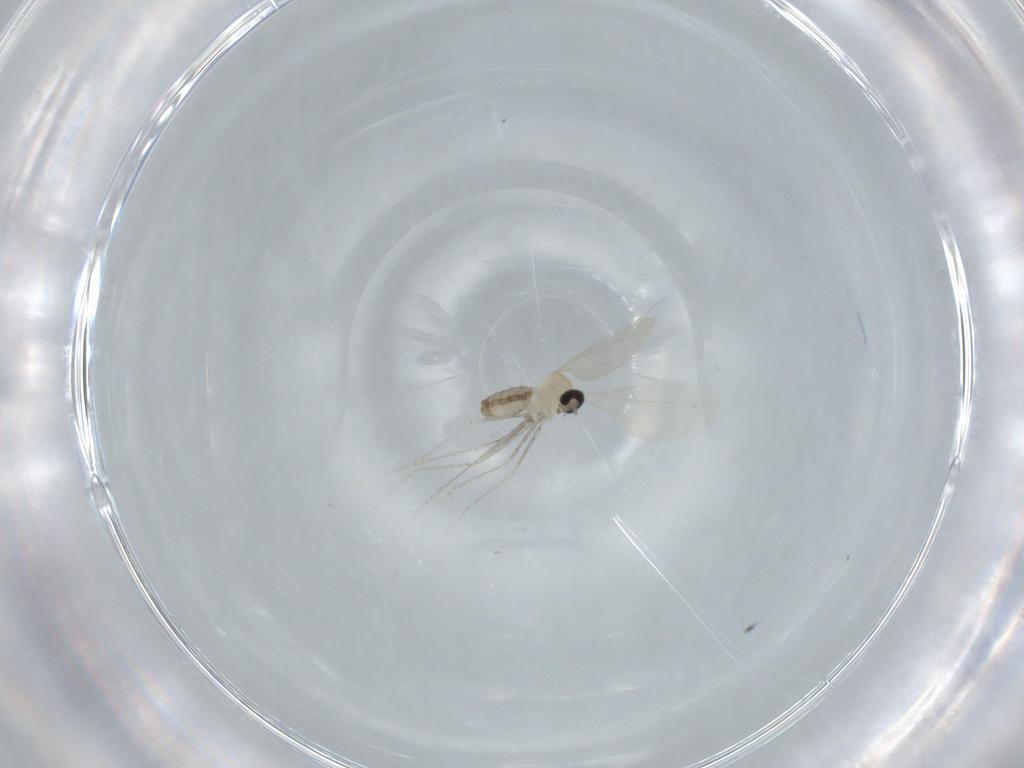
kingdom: Animalia
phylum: Arthropoda
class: Insecta
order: Diptera
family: Cecidomyiidae
